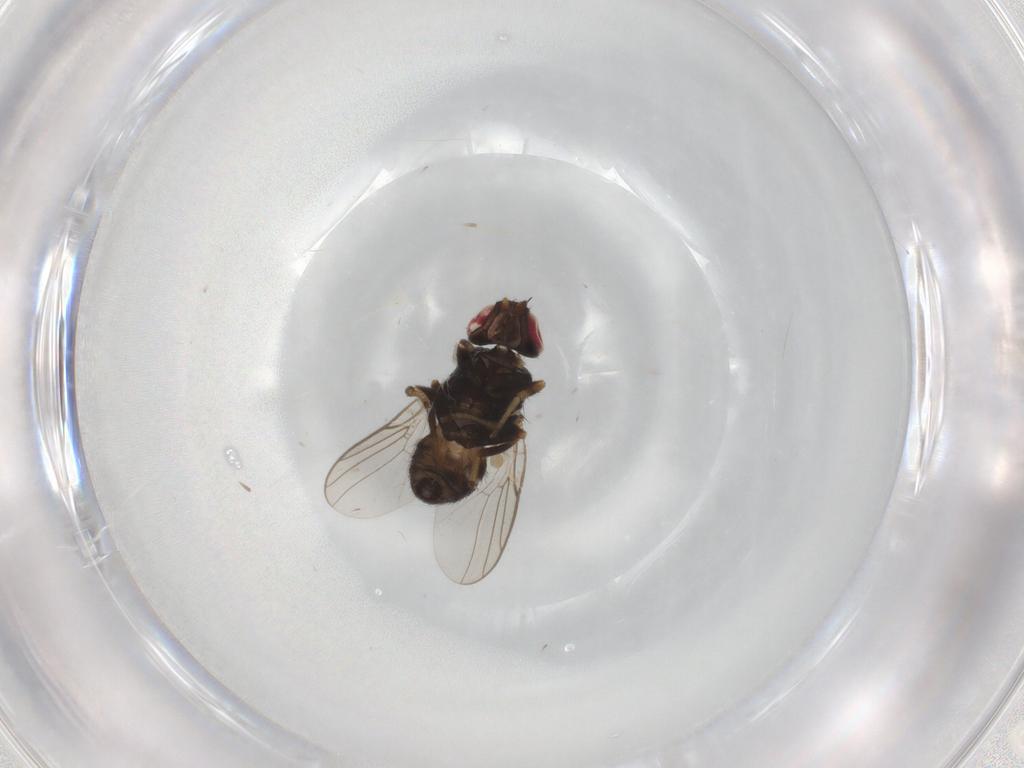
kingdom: Animalia
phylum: Arthropoda
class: Insecta
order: Diptera
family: Chloropidae
